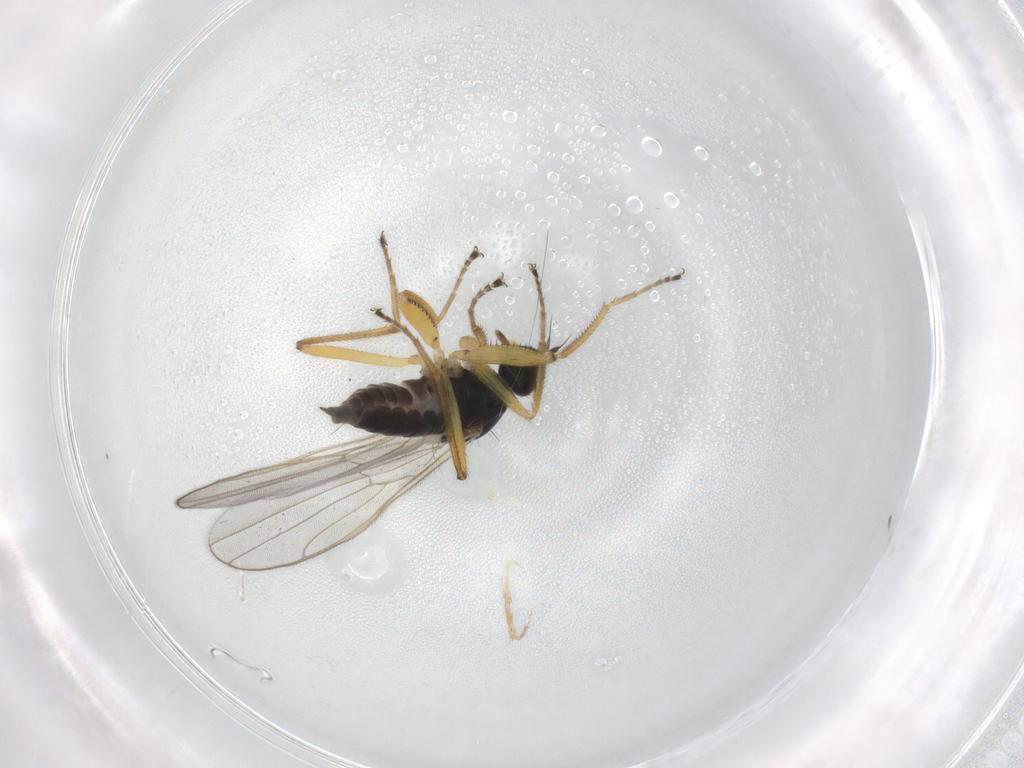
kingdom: Animalia
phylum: Arthropoda
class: Insecta
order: Diptera
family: Hybotidae
